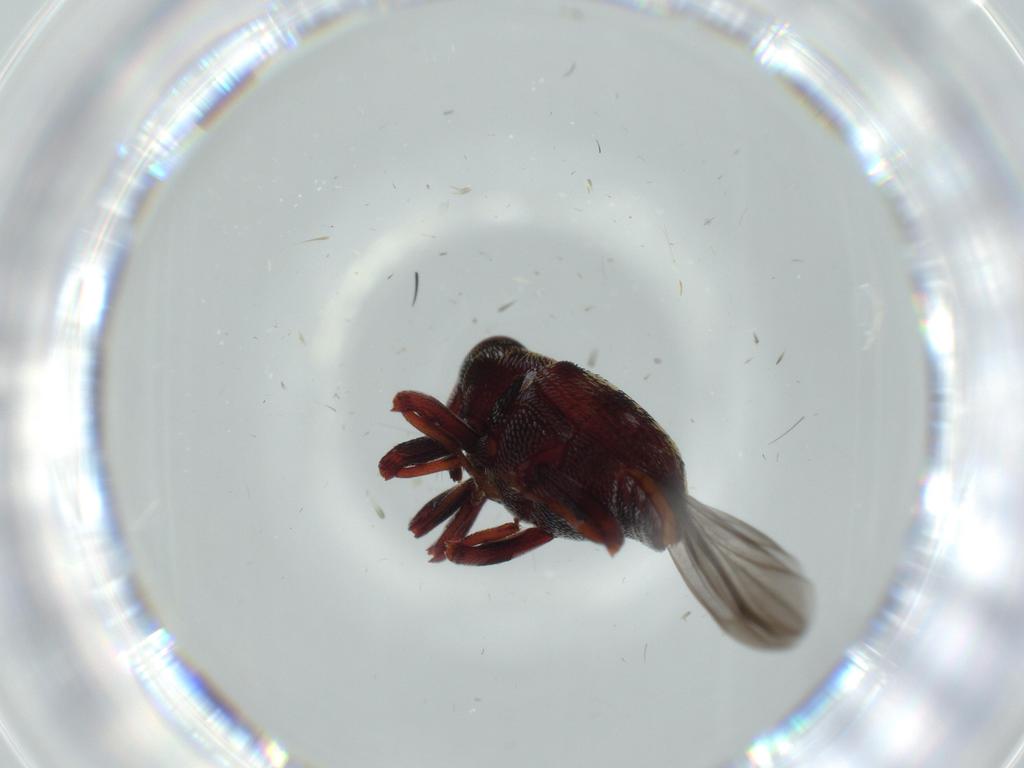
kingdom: Animalia
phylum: Arthropoda
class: Insecta
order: Coleoptera
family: Curculionidae
